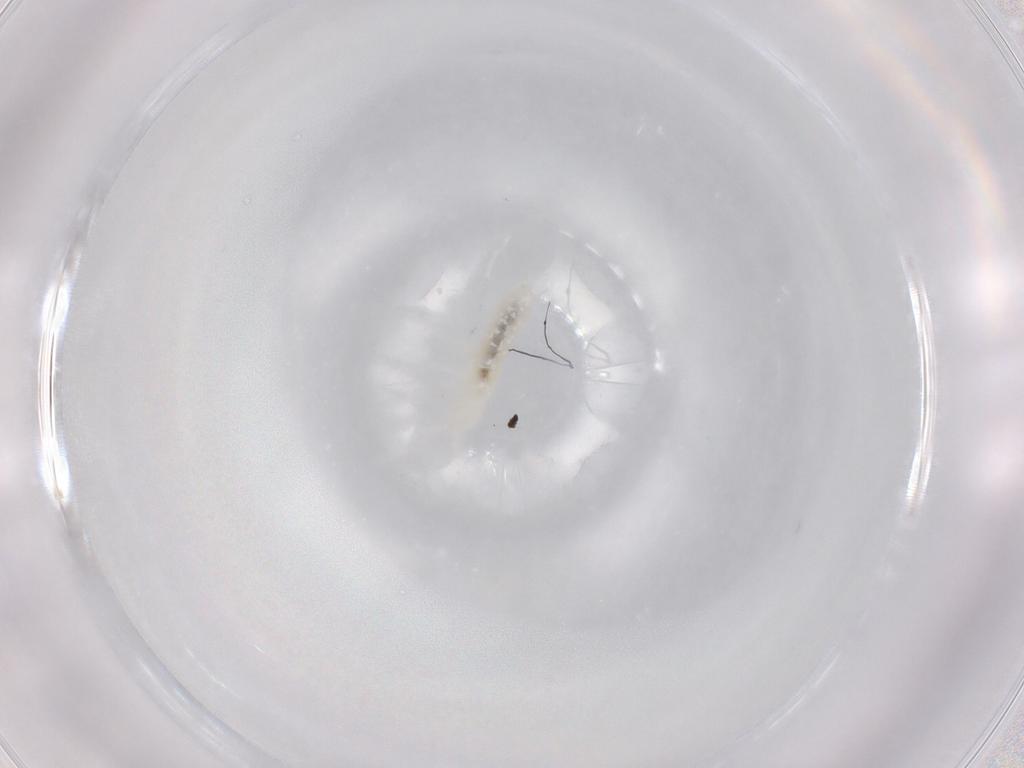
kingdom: Animalia
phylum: Arthropoda
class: Collembola
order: Poduromorpha
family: Onychiuridae
